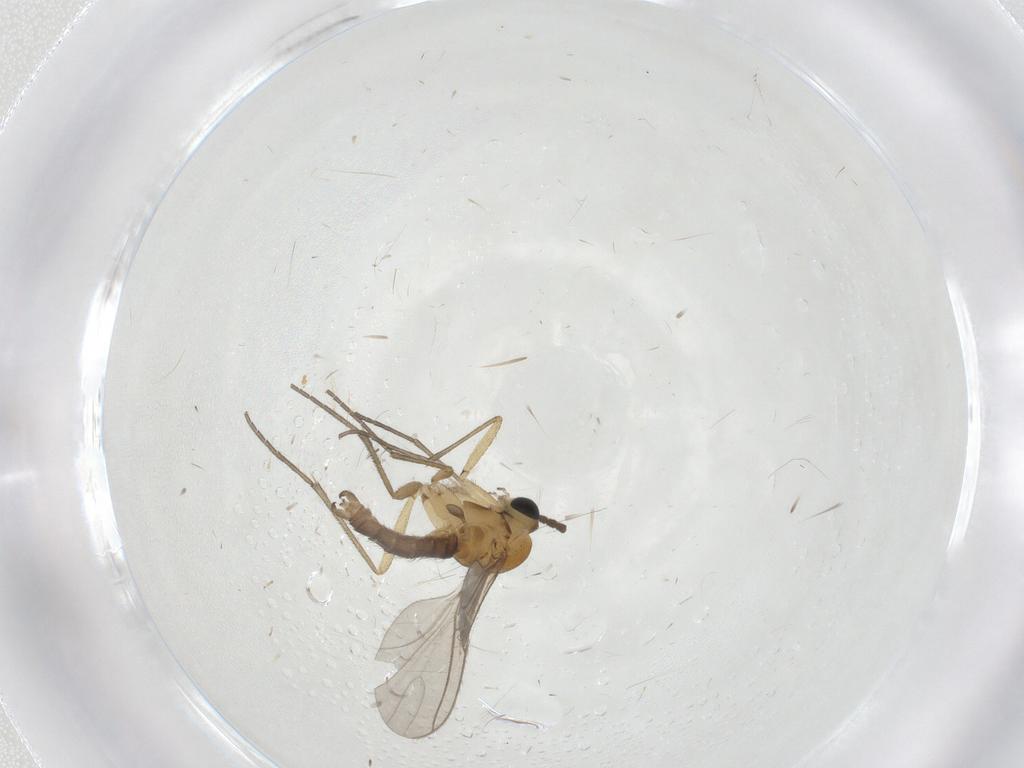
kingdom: Animalia
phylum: Arthropoda
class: Insecta
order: Diptera
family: Sciaridae
